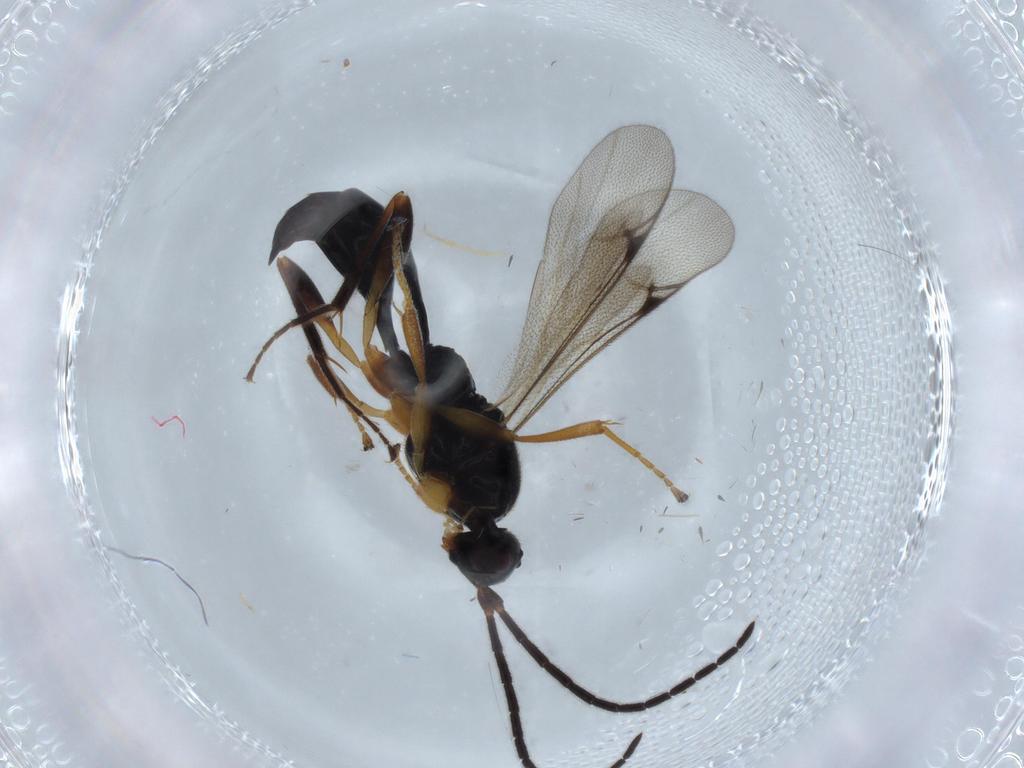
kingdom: Animalia
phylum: Arthropoda
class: Insecta
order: Hymenoptera
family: Proctotrupidae
